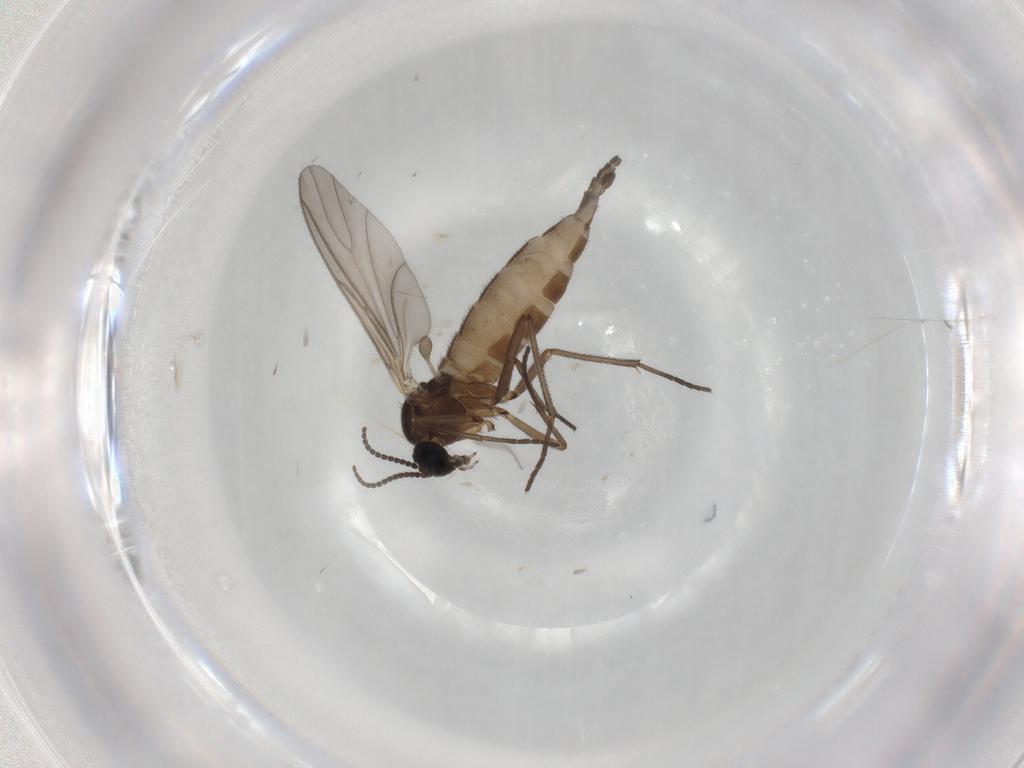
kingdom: Animalia
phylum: Arthropoda
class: Insecta
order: Diptera
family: Sciaridae
